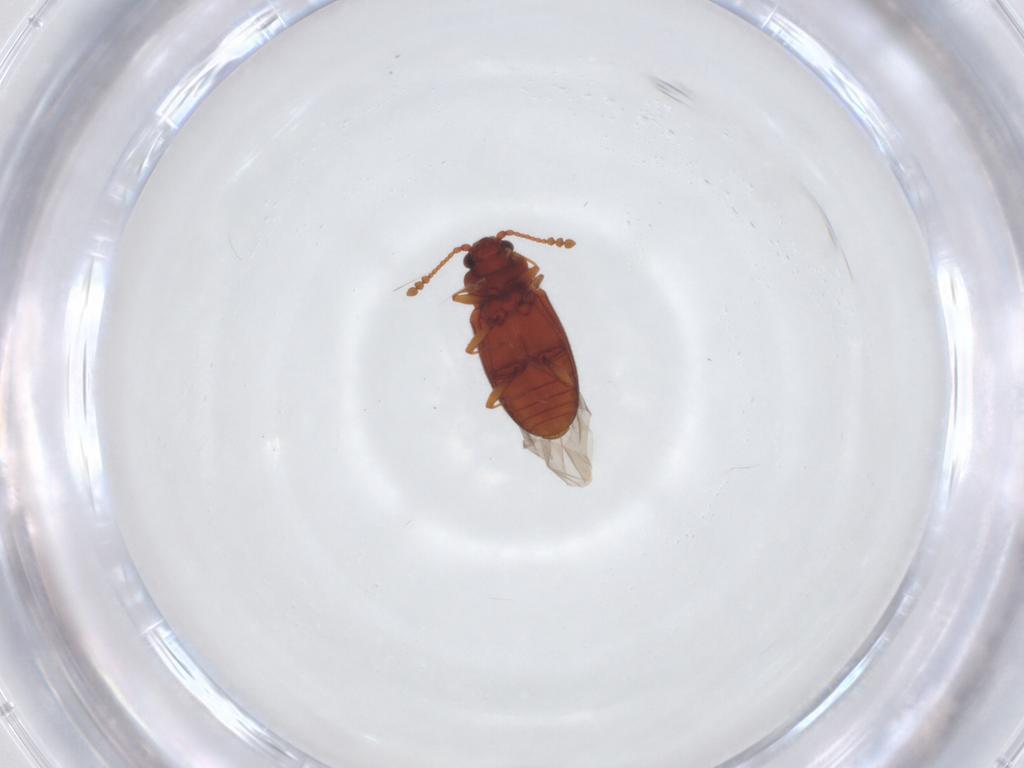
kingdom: Animalia
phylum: Arthropoda
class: Insecta
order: Coleoptera
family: Cryptophagidae
